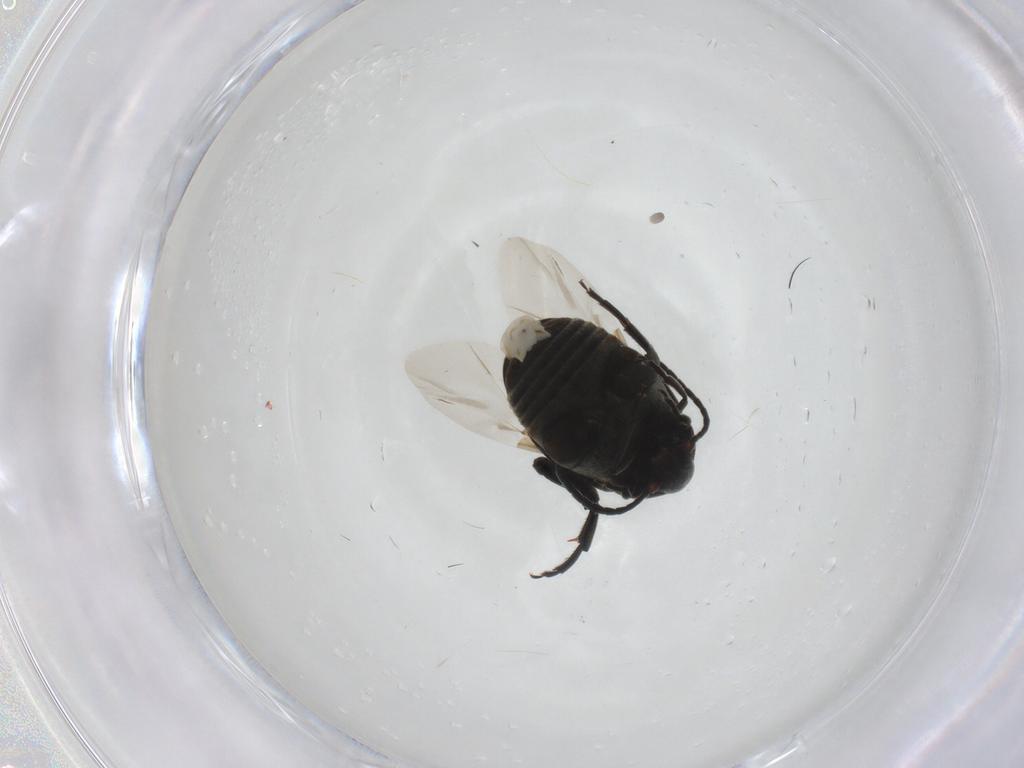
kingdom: Animalia
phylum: Arthropoda
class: Insecta
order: Coleoptera
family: Chrysomelidae
